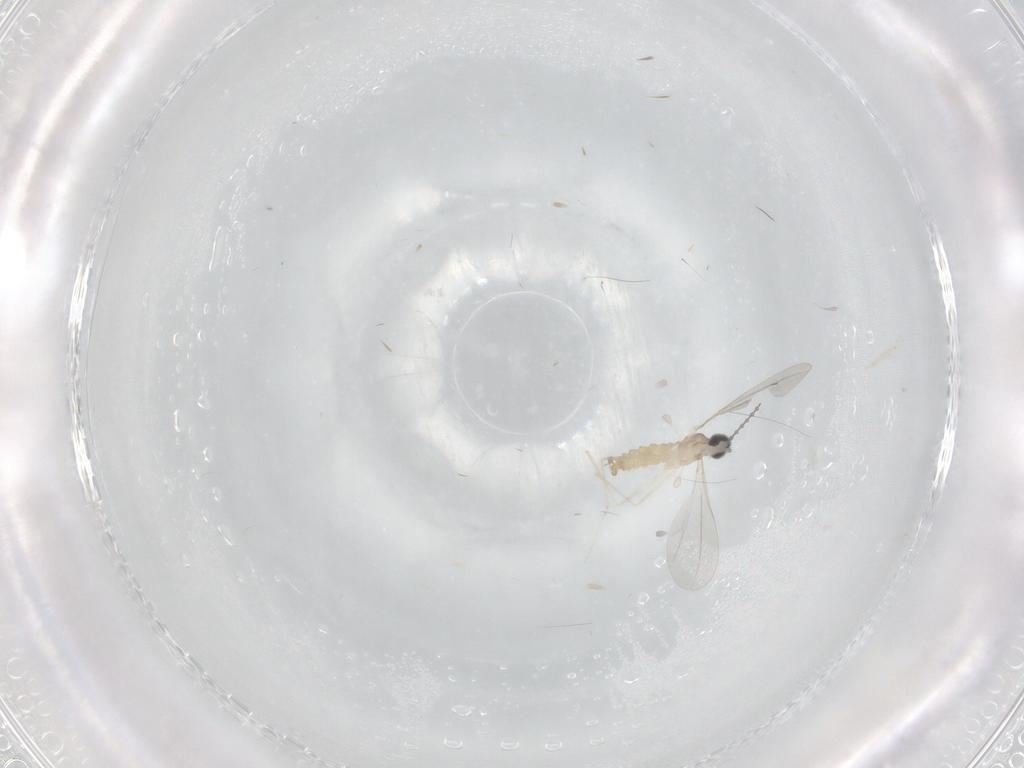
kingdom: Animalia
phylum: Arthropoda
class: Insecta
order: Diptera
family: Cecidomyiidae
